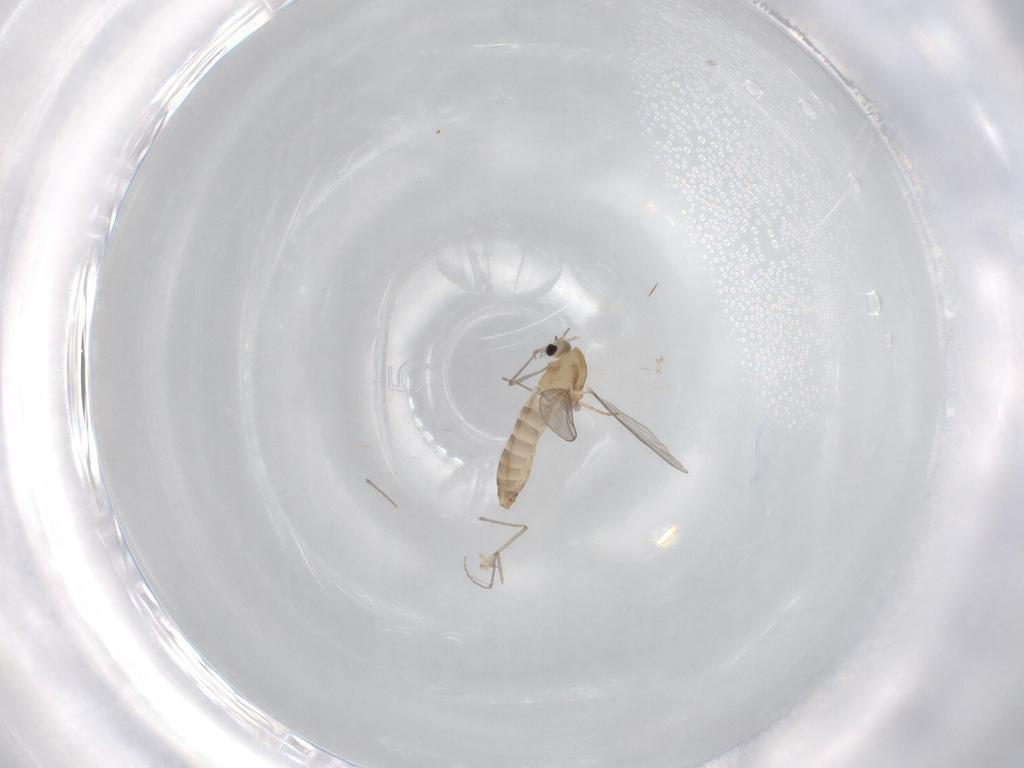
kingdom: Animalia
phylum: Arthropoda
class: Insecta
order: Diptera
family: Chironomidae
